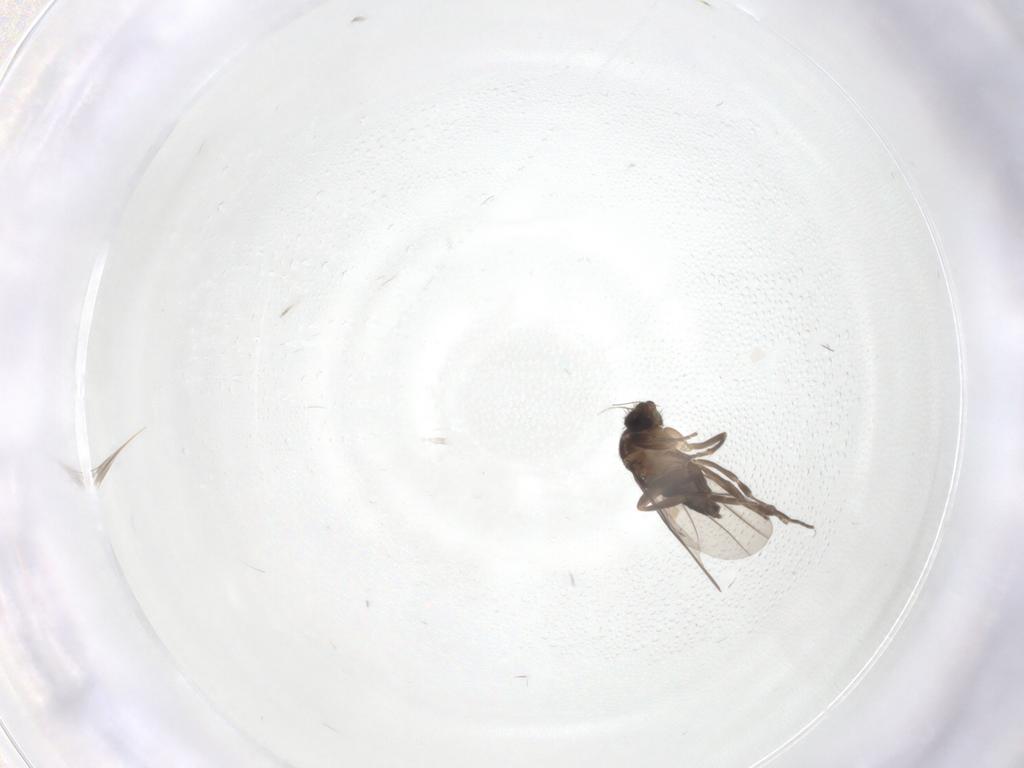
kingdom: Animalia
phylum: Arthropoda
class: Insecta
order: Diptera
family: Phoridae
